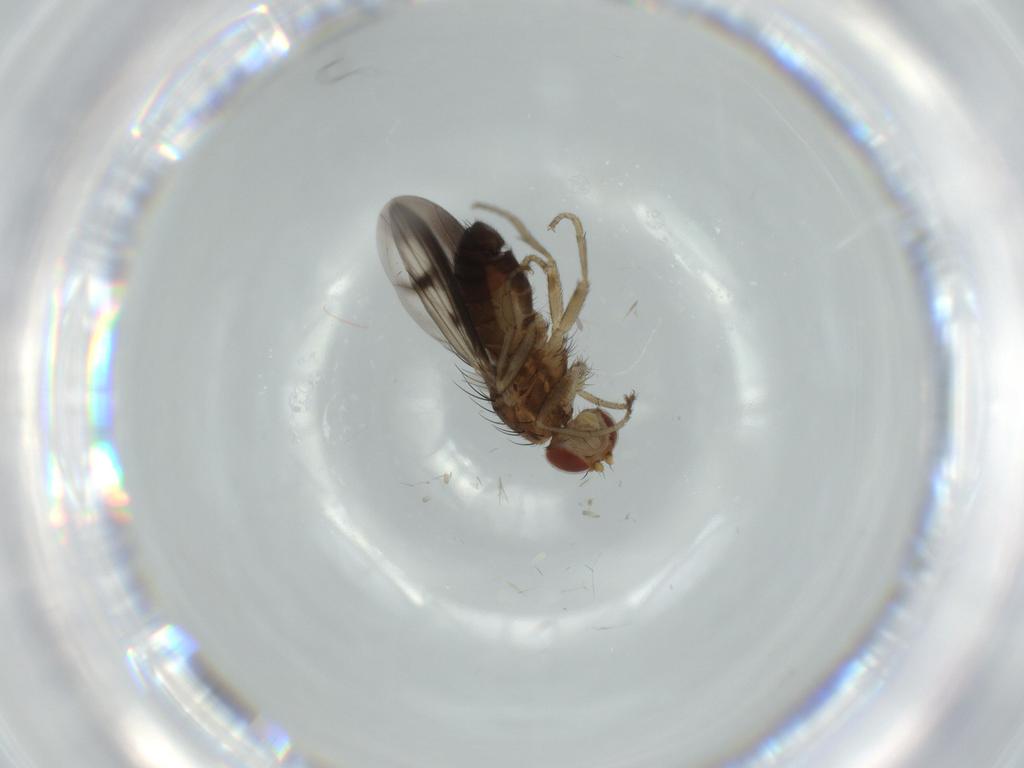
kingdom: Animalia
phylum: Arthropoda
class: Insecta
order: Diptera
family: Heleomyzidae
